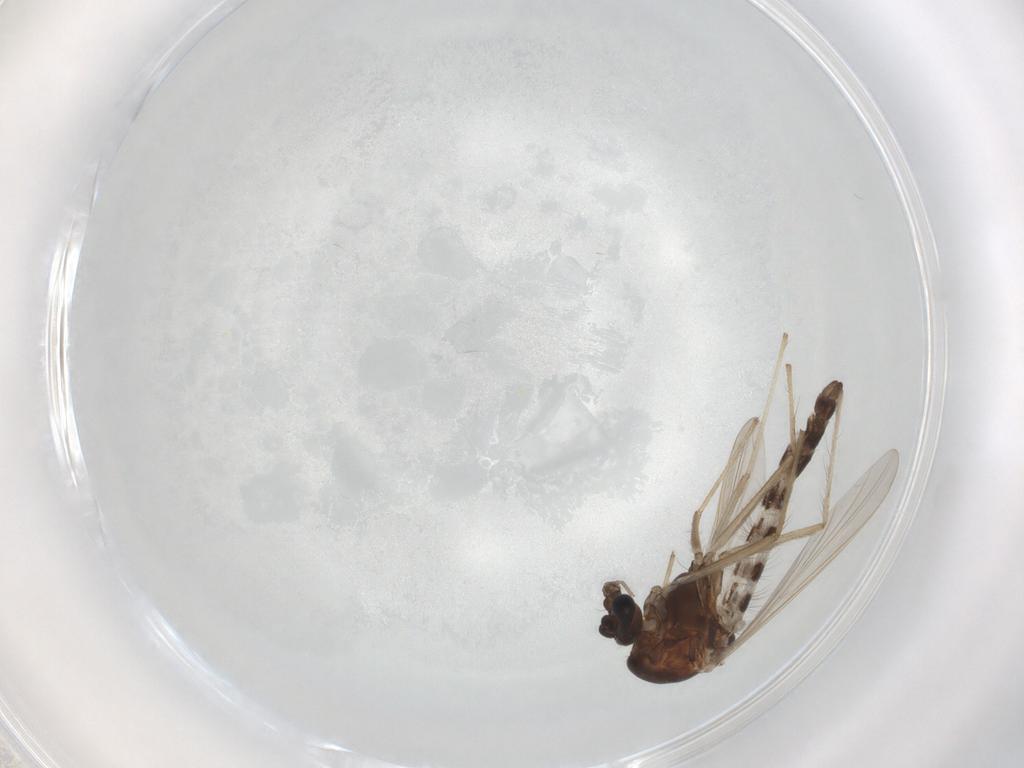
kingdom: Animalia
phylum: Arthropoda
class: Insecta
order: Diptera
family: Chironomidae
